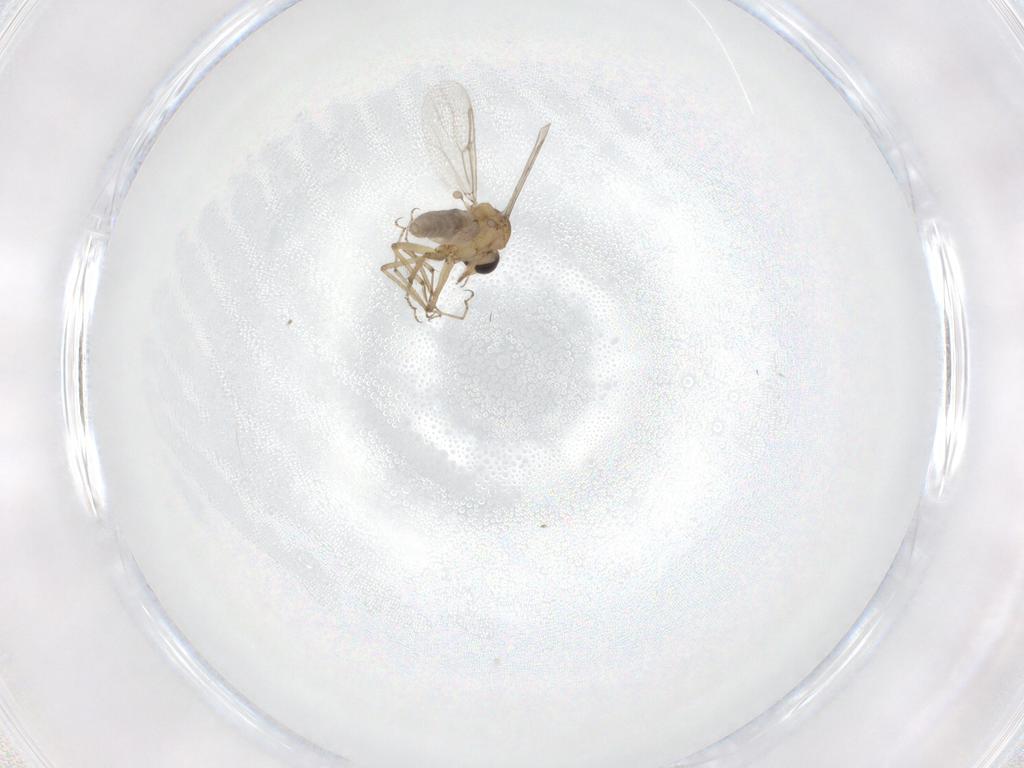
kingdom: Animalia
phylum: Arthropoda
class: Insecta
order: Diptera
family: Ceratopogonidae
